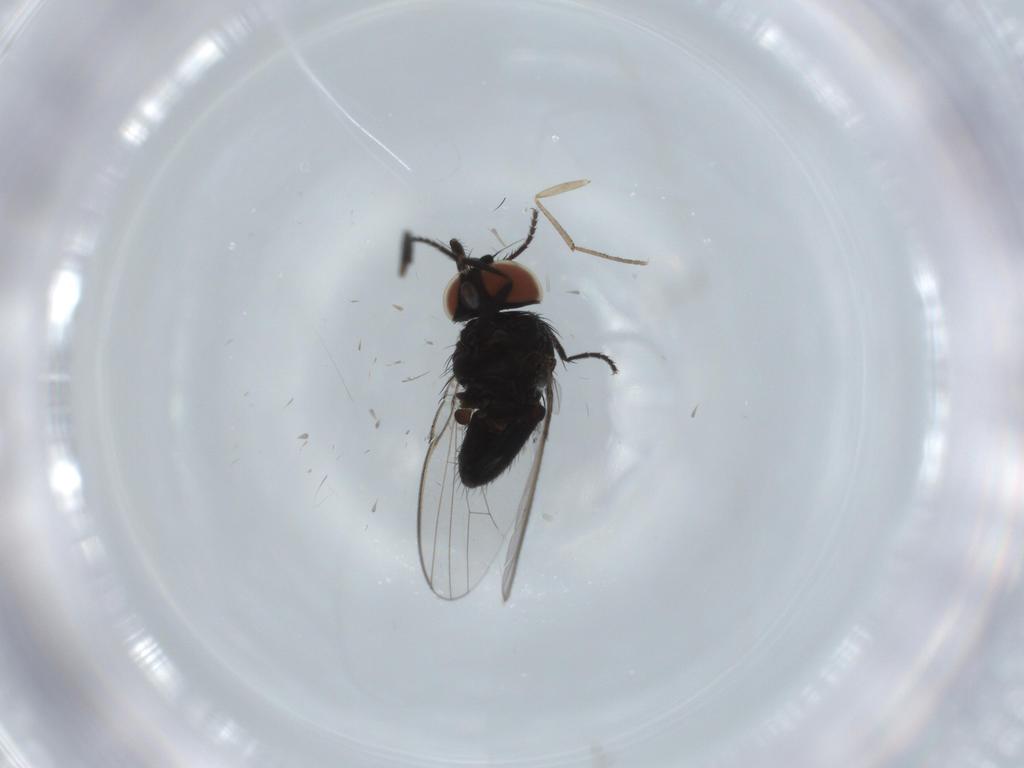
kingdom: Animalia
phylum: Arthropoda
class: Insecta
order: Diptera
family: Milichiidae
